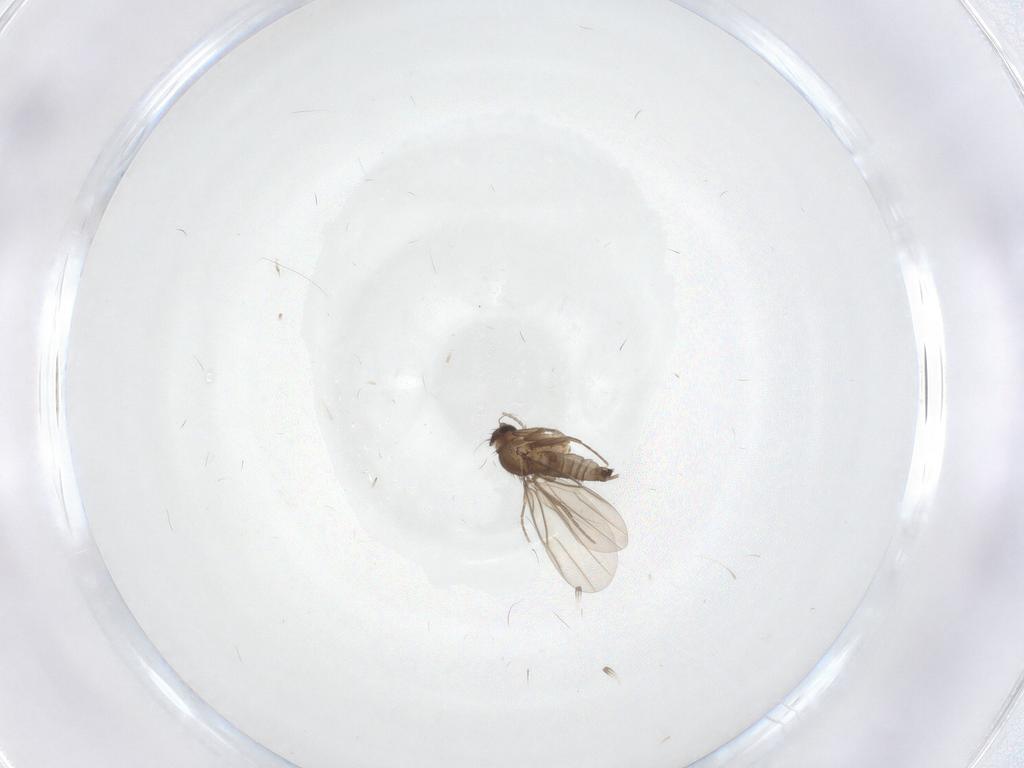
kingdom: Animalia
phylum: Arthropoda
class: Insecta
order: Diptera
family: Phoridae
